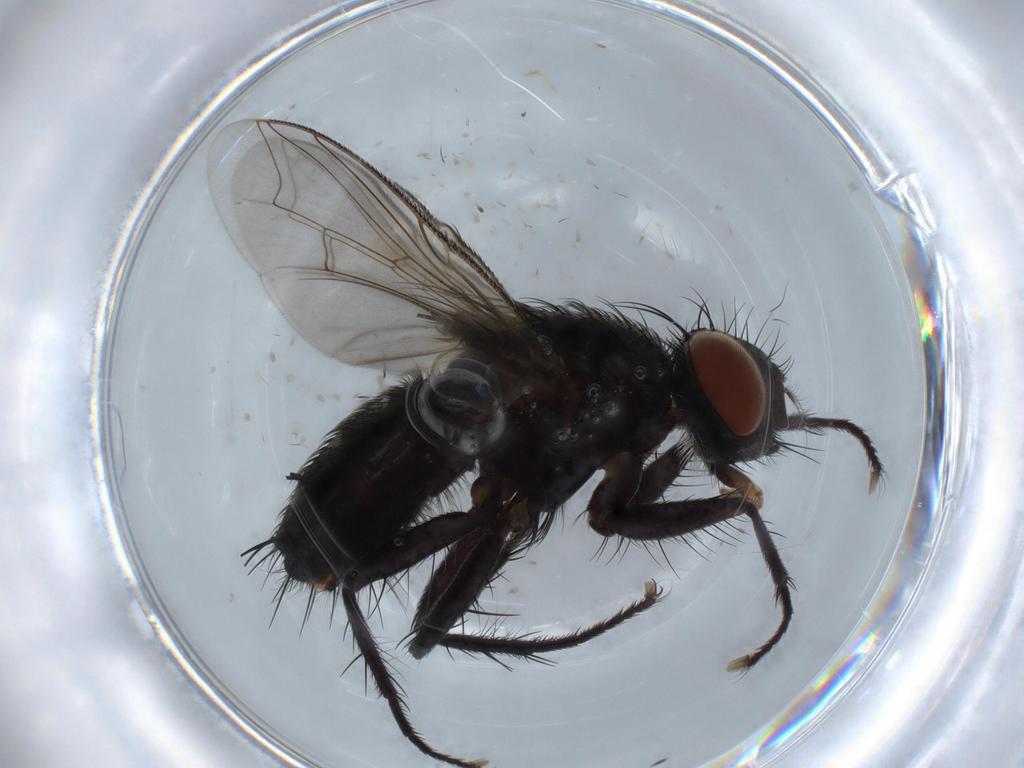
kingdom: Animalia
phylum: Arthropoda
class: Insecta
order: Diptera
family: Sarcophagidae
